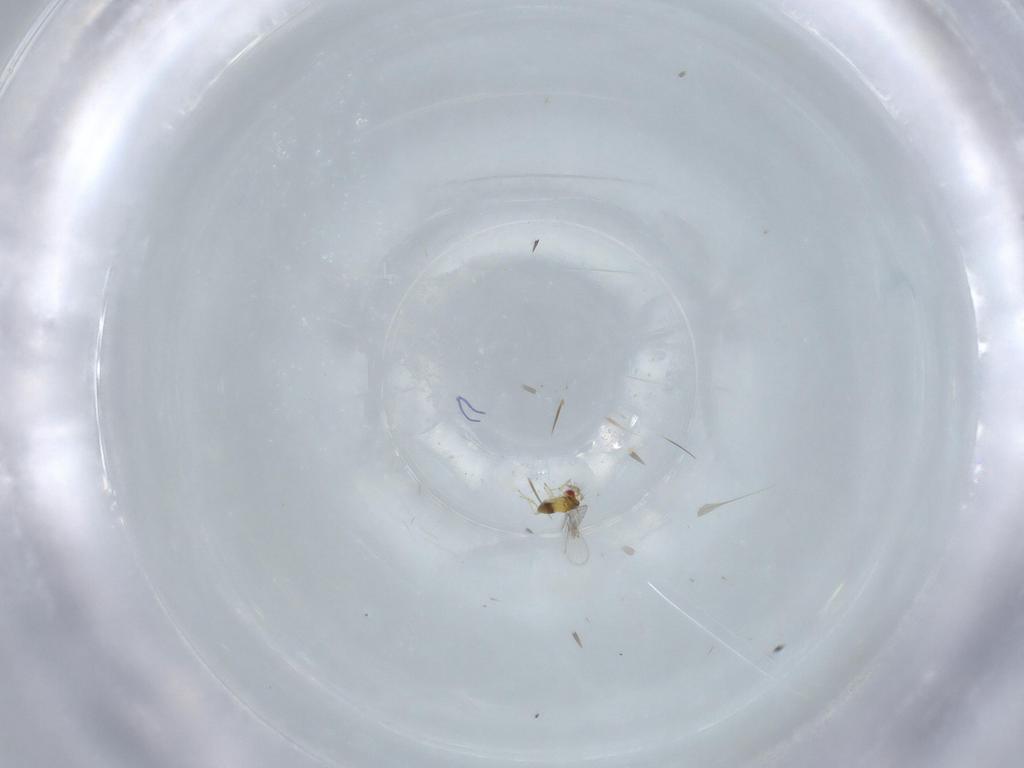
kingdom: Animalia
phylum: Arthropoda
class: Insecta
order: Hymenoptera
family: Trichogrammatidae
